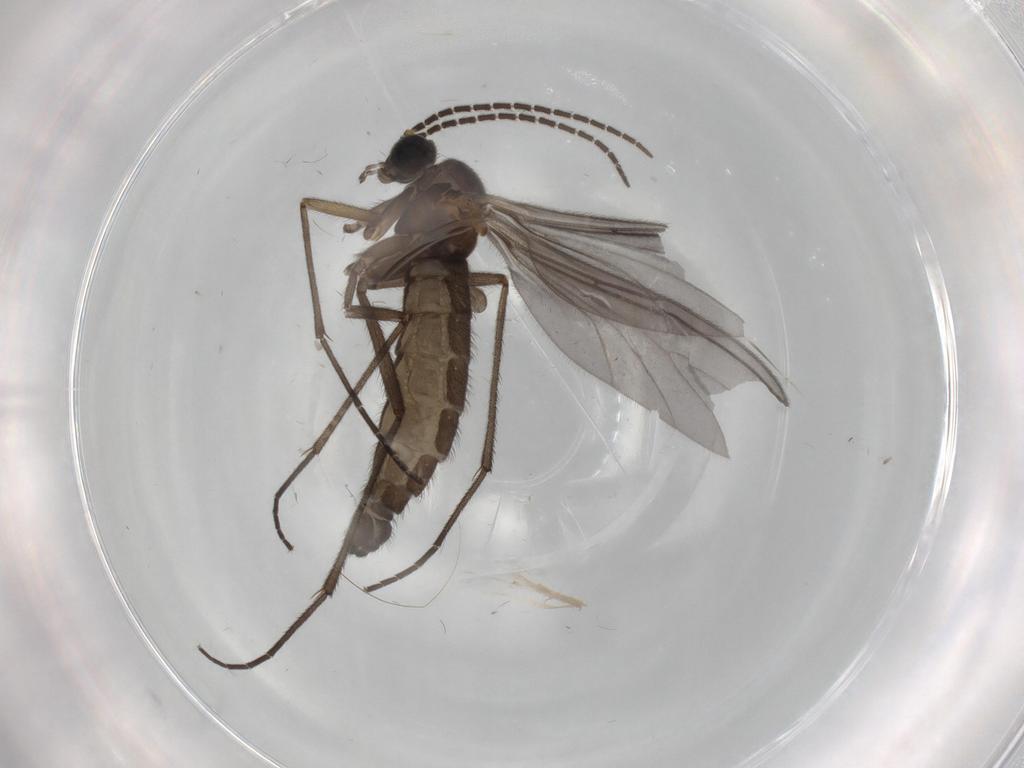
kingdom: Animalia
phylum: Arthropoda
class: Insecta
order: Diptera
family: Sciaridae
